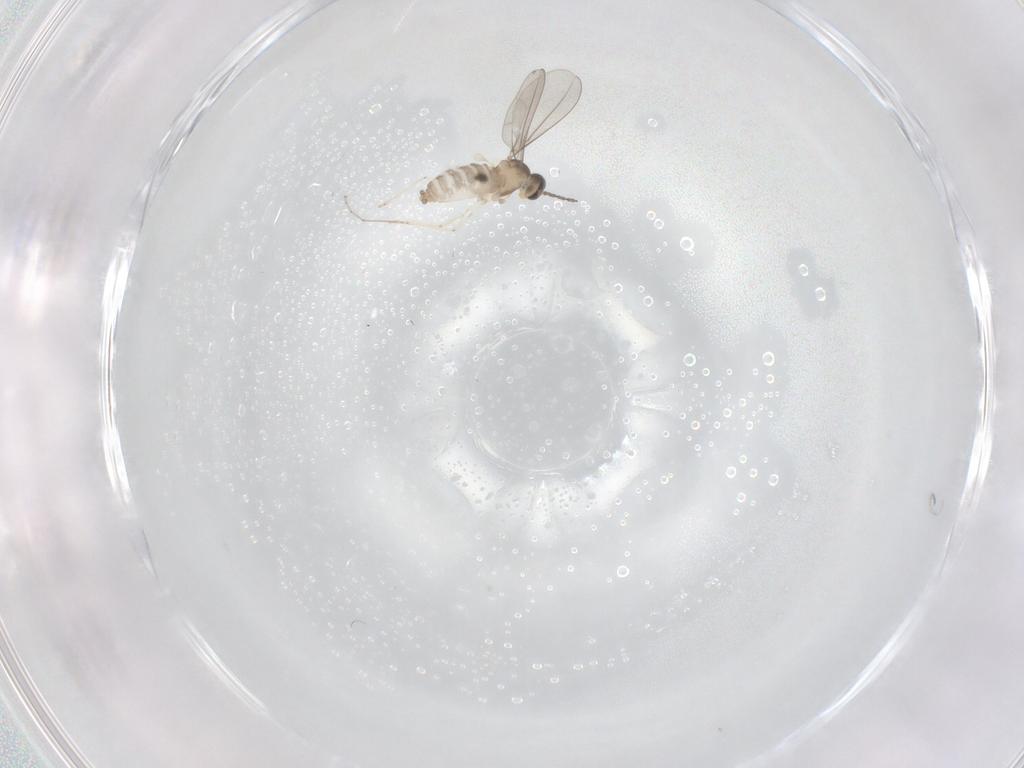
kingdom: Animalia
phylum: Arthropoda
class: Insecta
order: Diptera
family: Cecidomyiidae
